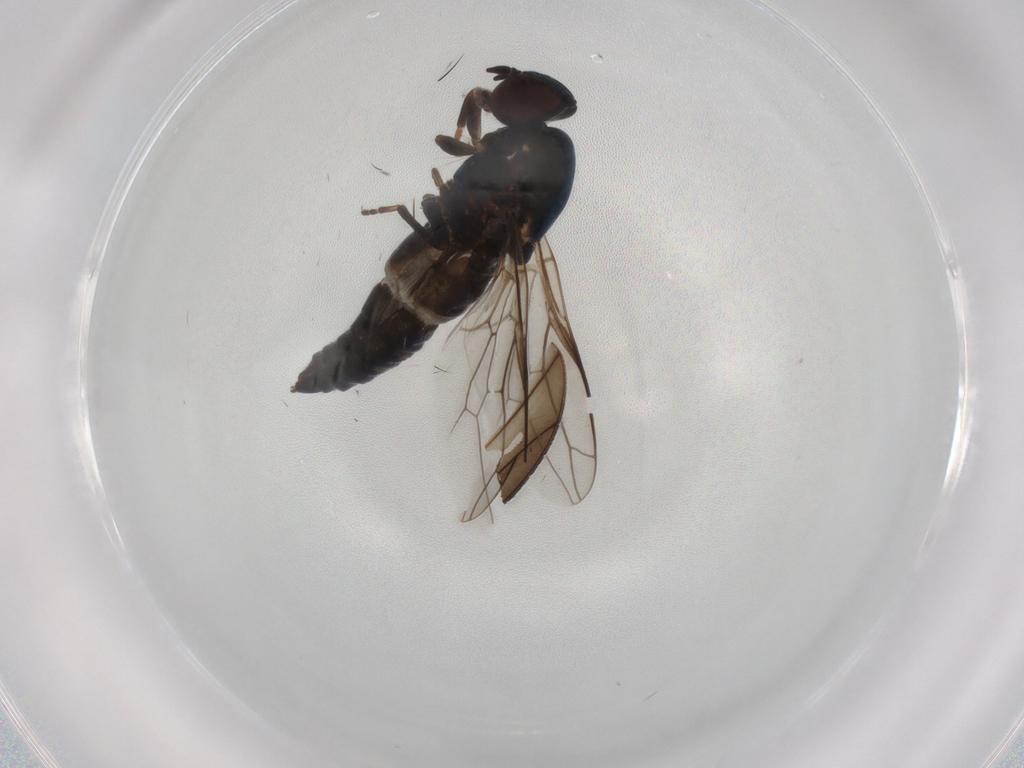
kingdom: Animalia
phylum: Arthropoda
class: Insecta
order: Diptera
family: Scenopinidae
